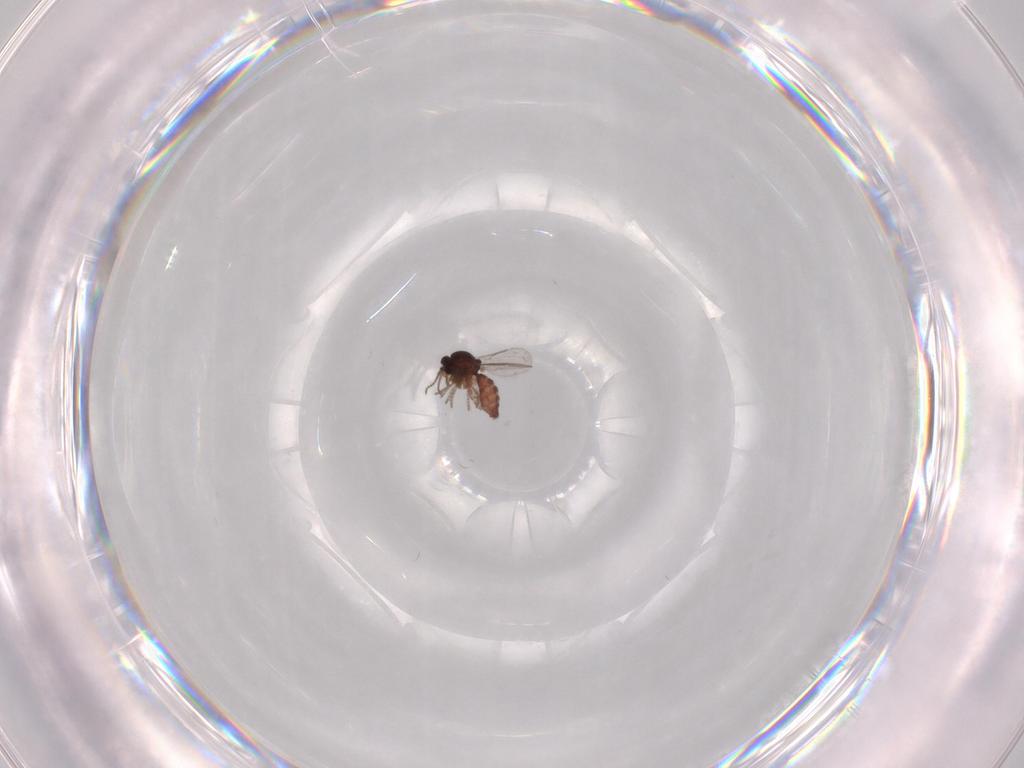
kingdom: Animalia
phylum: Arthropoda
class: Insecta
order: Diptera
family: Ceratopogonidae
